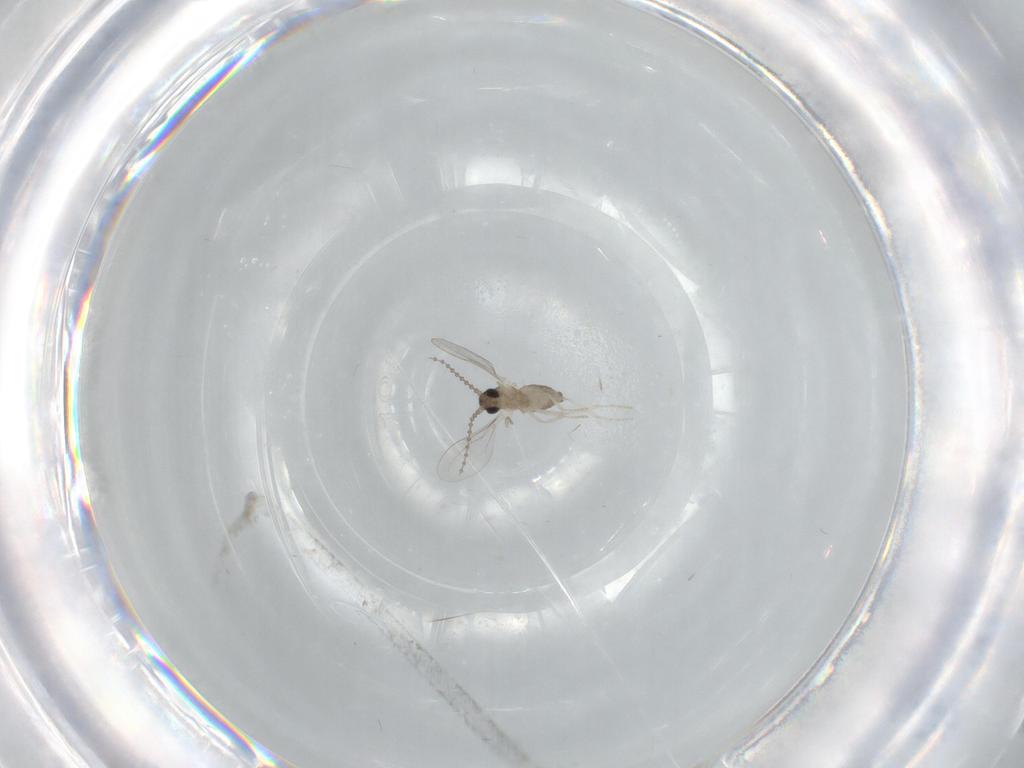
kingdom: Animalia
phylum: Arthropoda
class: Insecta
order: Diptera
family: Cecidomyiidae
